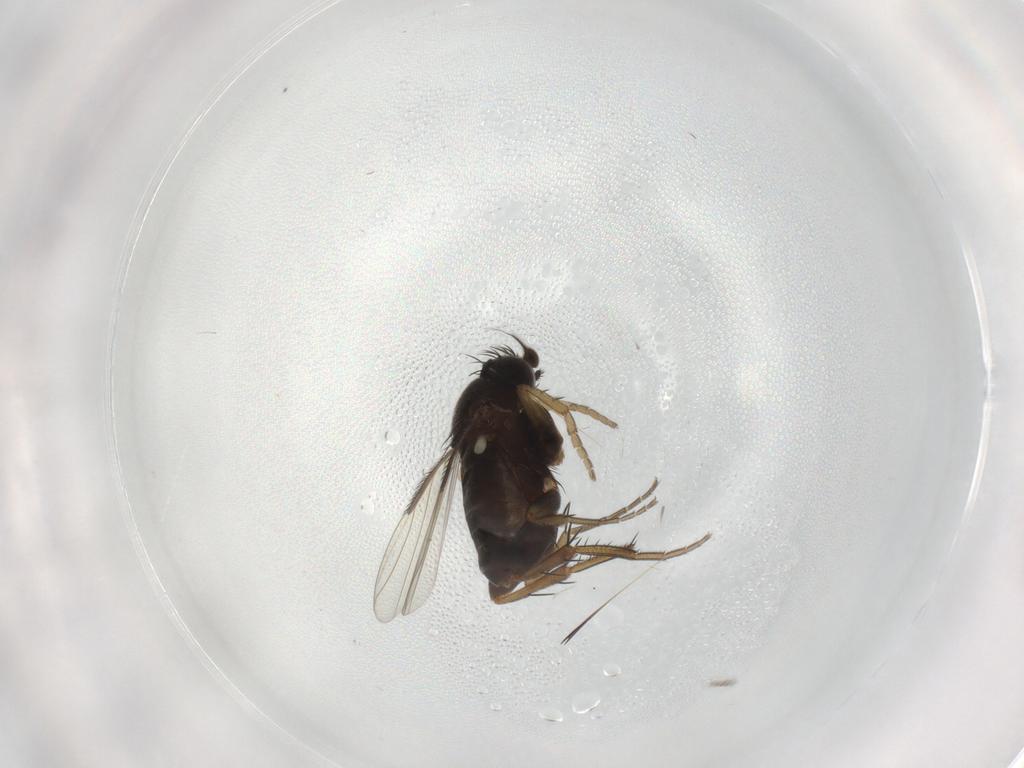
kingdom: Animalia
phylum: Arthropoda
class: Insecta
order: Diptera
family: Phoridae
